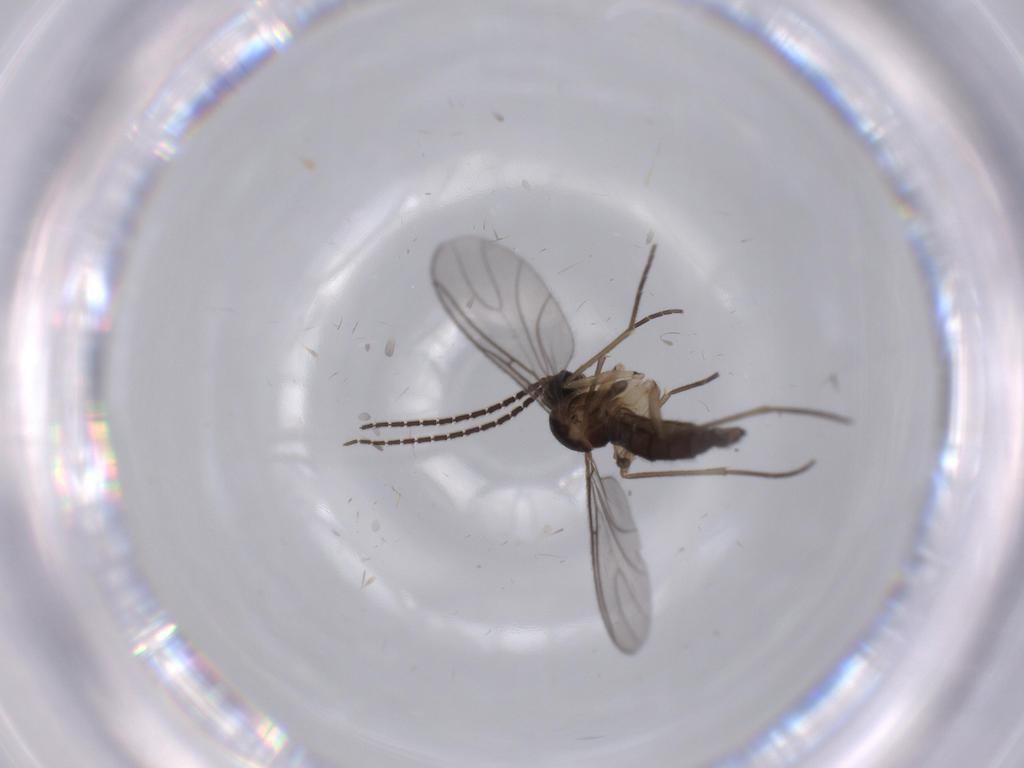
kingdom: Animalia
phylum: Arthropoda
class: Insecta
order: Diptera
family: Sciaridae
